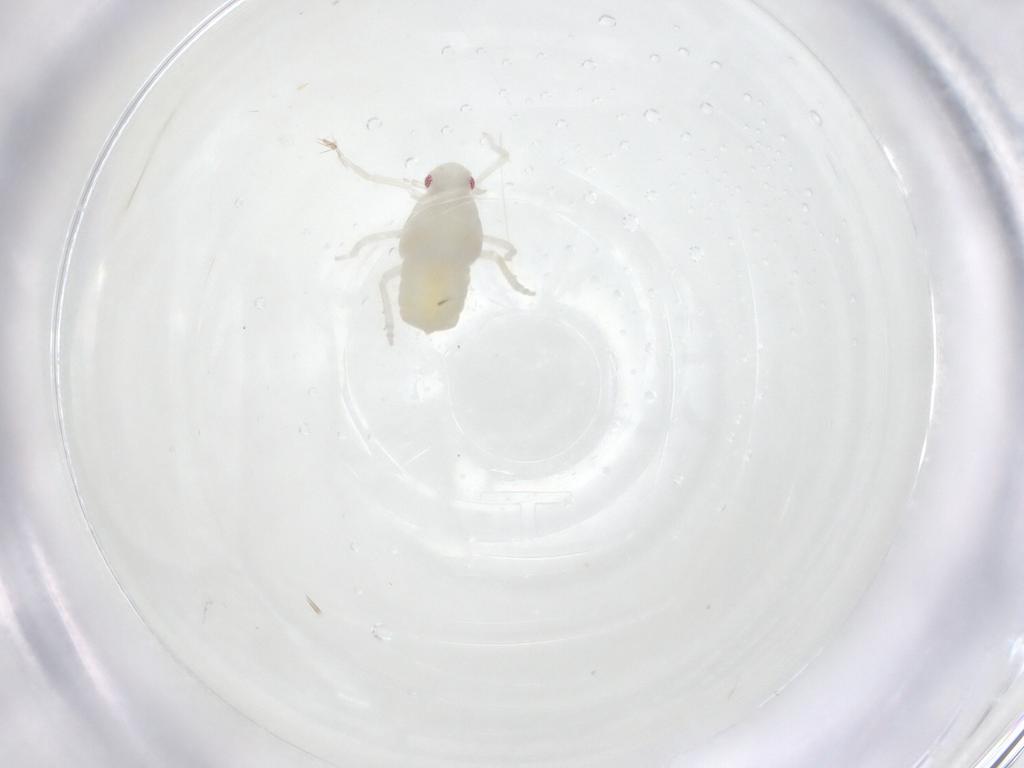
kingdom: Animalia
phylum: Arthropoda
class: Insecta
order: Hemiptera
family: Flatidae
